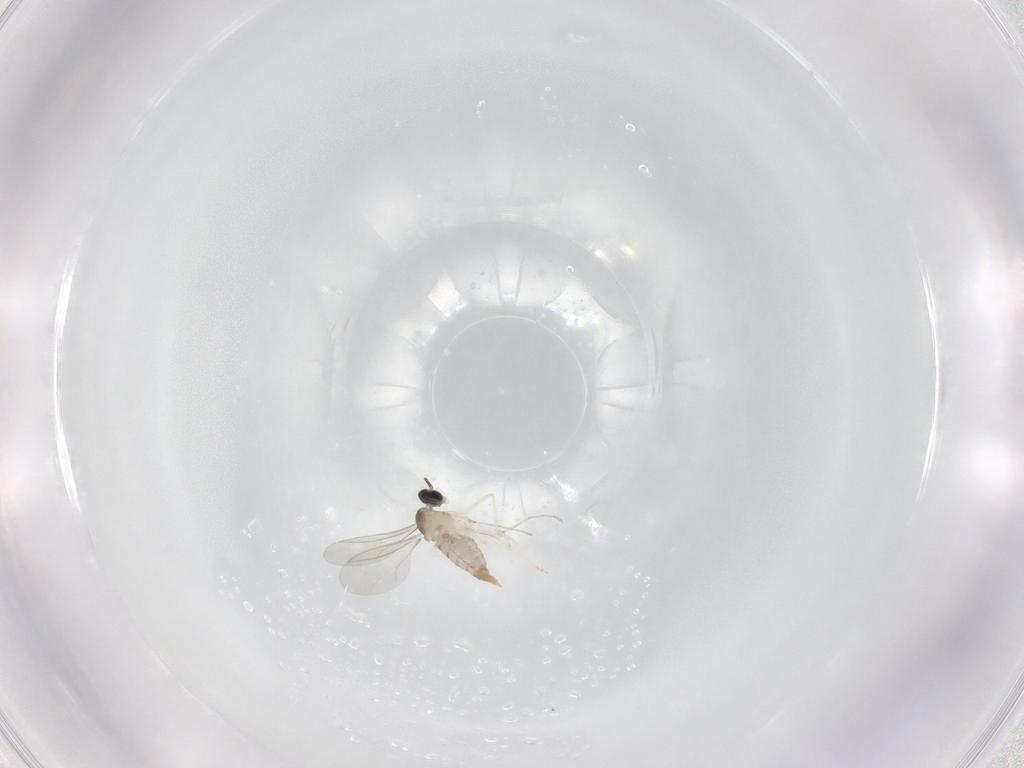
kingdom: Animalia
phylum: Arthropoda
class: Insecta
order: Diptera
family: Cecidomyiidae
